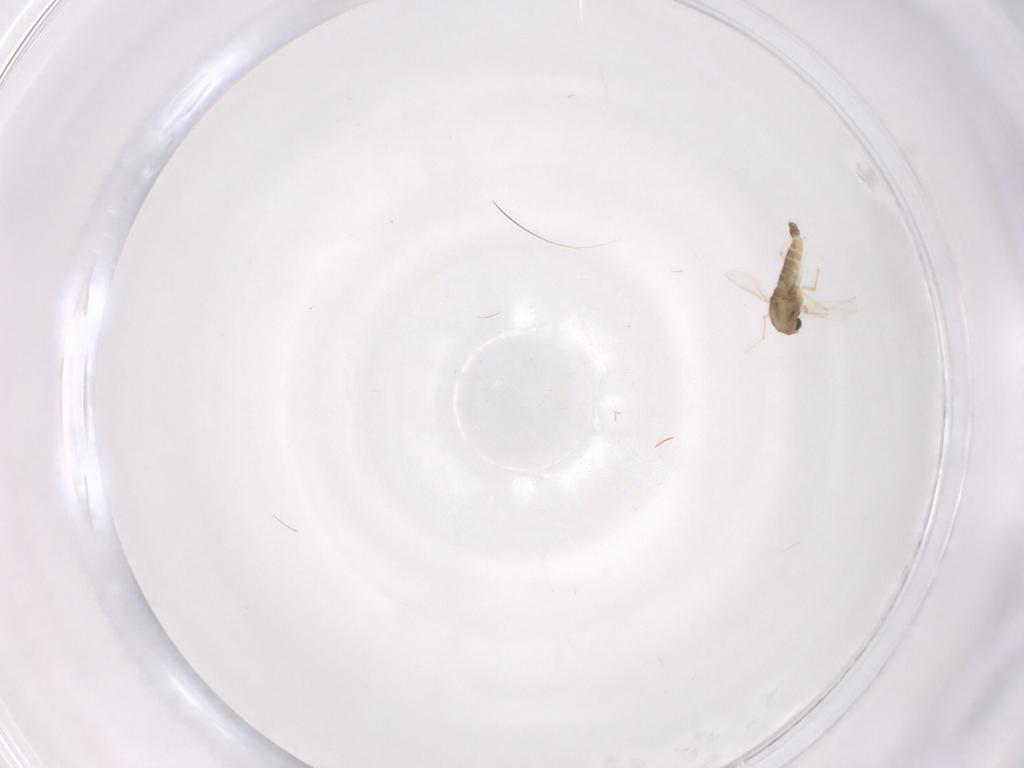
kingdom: Animalia
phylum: Arthropoda
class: Insecta
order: Diptera
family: Chironomidae
